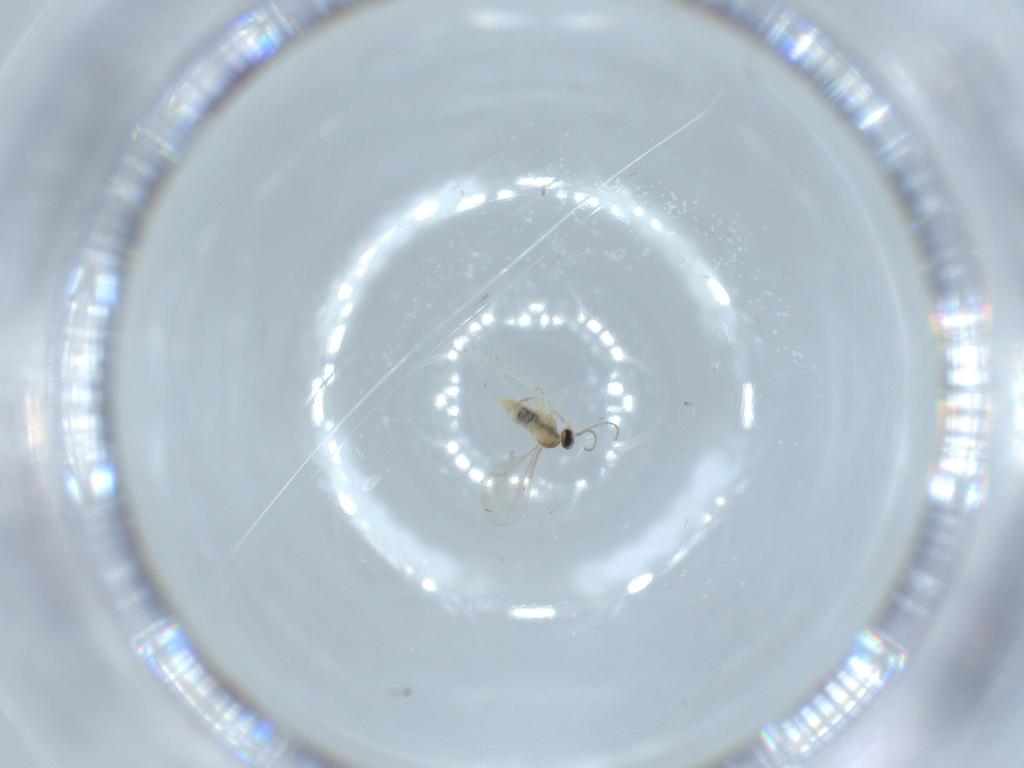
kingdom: Animalia
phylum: Arthropoda
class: Insecta
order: Diptera
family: Cecidomyiidae
